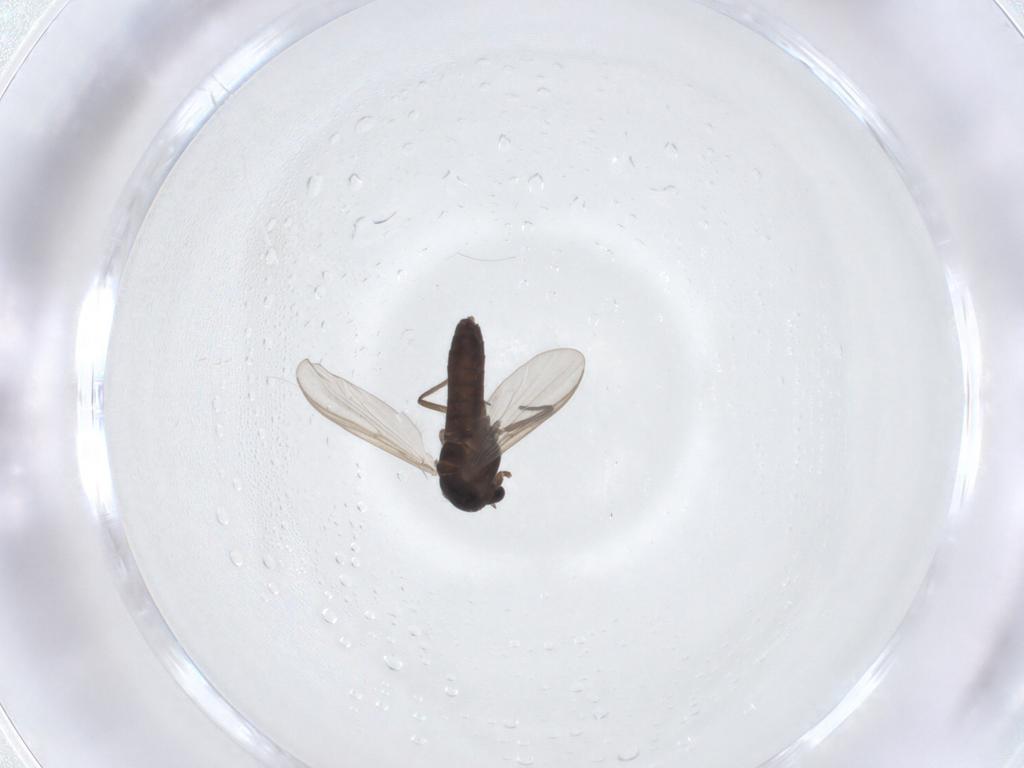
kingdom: Animalia
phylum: Arthropoda
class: Insecta
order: Diptera
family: Chironomidae
